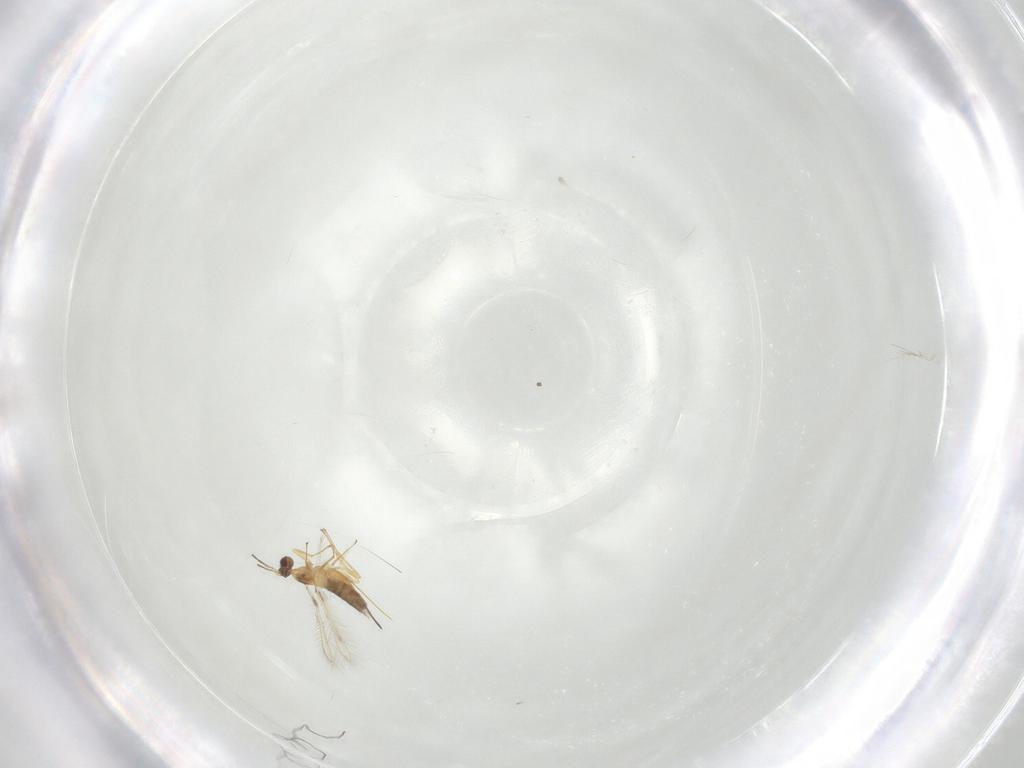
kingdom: Animalia
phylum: Arthropoda
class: Insecta
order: Hymenoptera
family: Mymaridae
